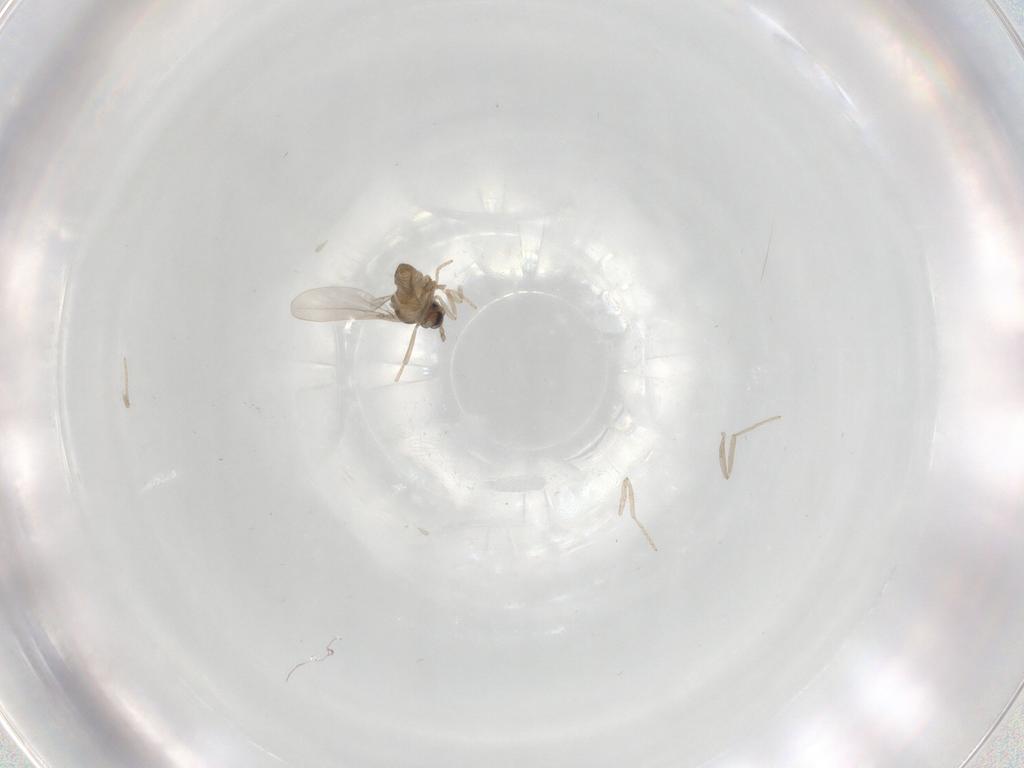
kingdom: Animalia
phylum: Arthropoda
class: Insecta
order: Diptera
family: Cecidomyiidae
